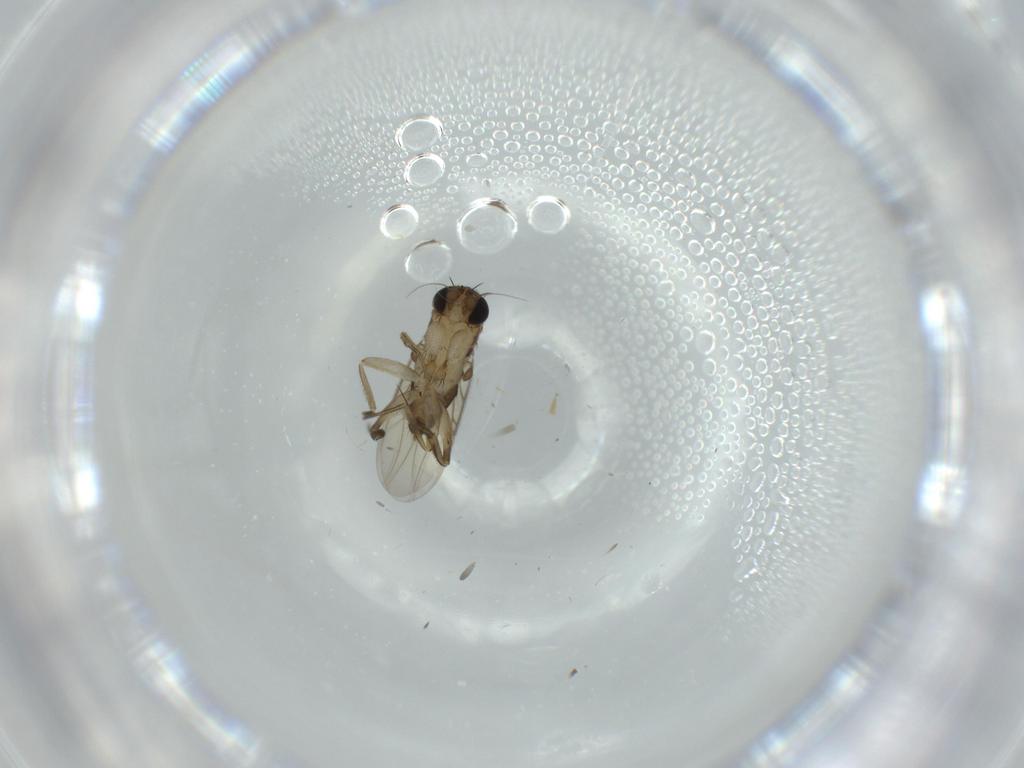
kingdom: Animalia
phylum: Arthropoda
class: Insecta
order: Diptera
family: Phoridae
